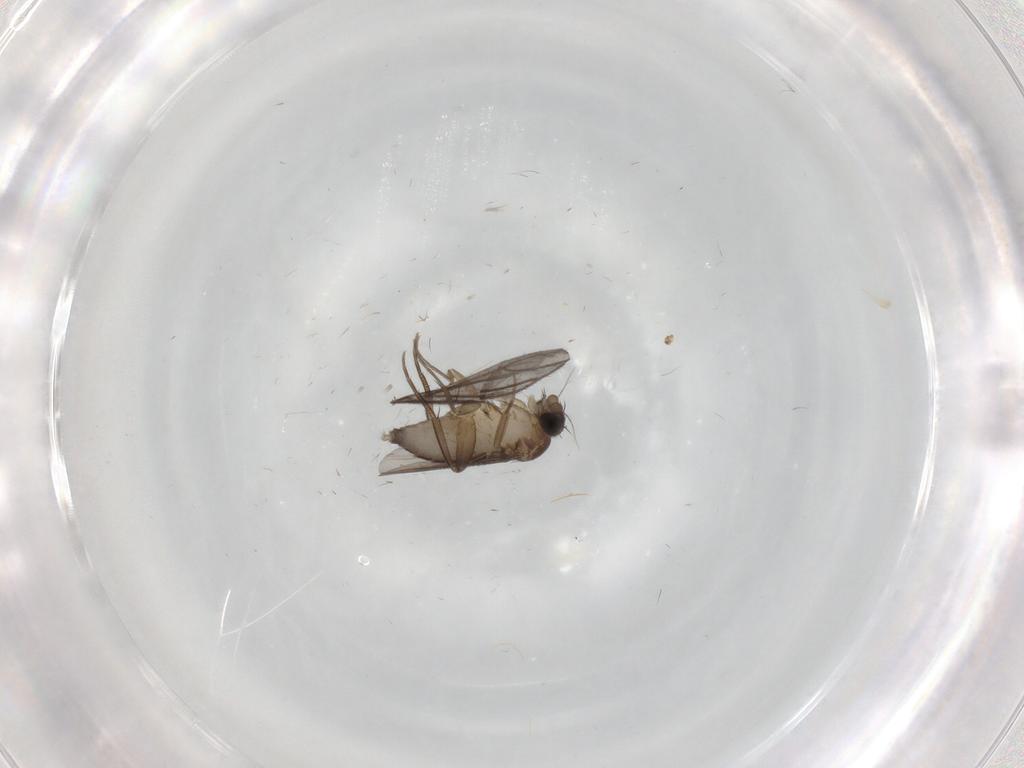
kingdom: Animalia
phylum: Arthropoda
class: Insecta
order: Diptera
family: Phoridae
